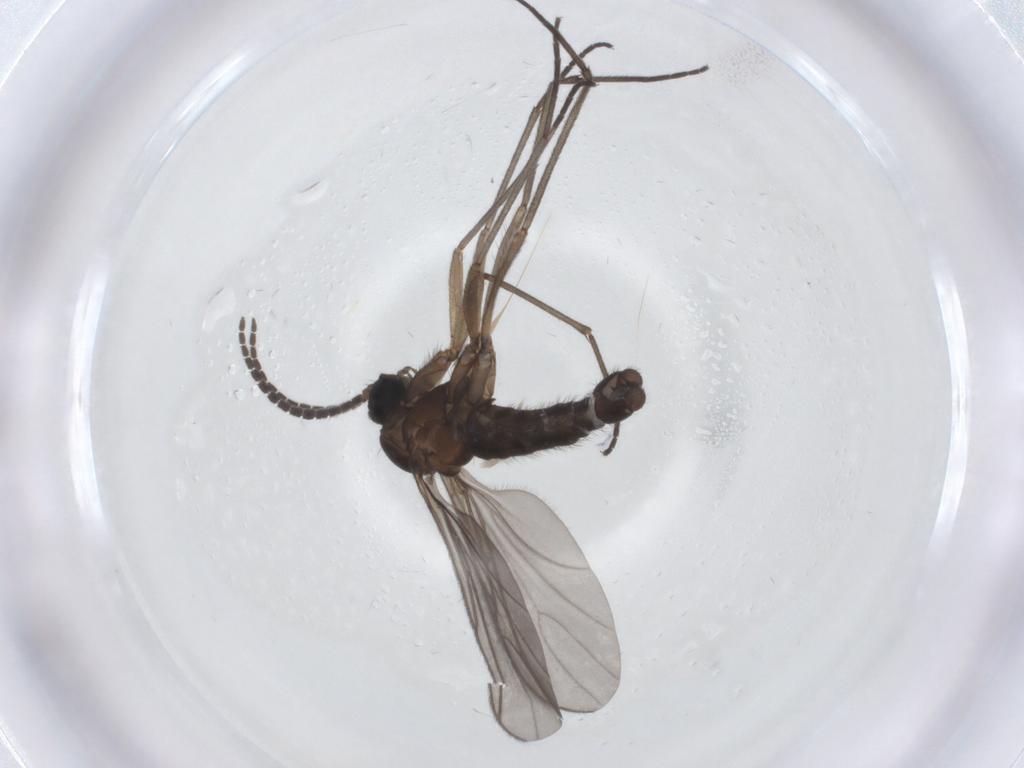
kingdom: Animalia
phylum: Arthropoda
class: Insecta
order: Diptera
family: Sciaridae
